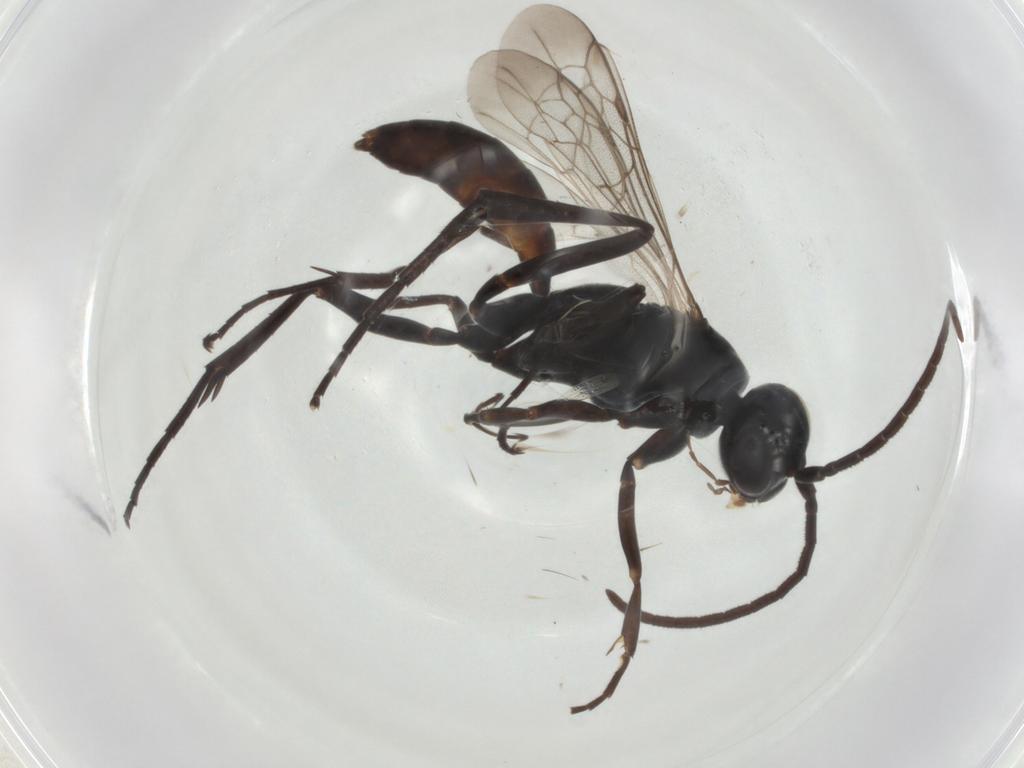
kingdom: Animalia
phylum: Arthropoda
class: Insecta
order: Hymenoptera
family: Pompilidae
